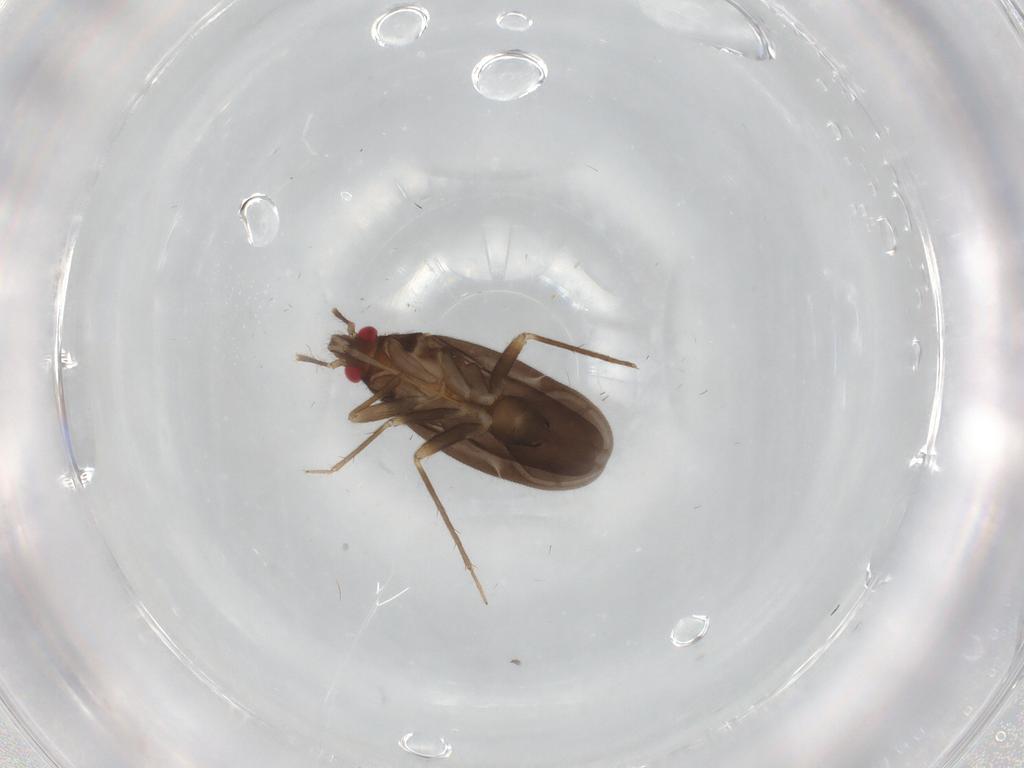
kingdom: Animalia
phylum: Arthropoda
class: Insecta
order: Hemiptera
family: Ceratocombidae
